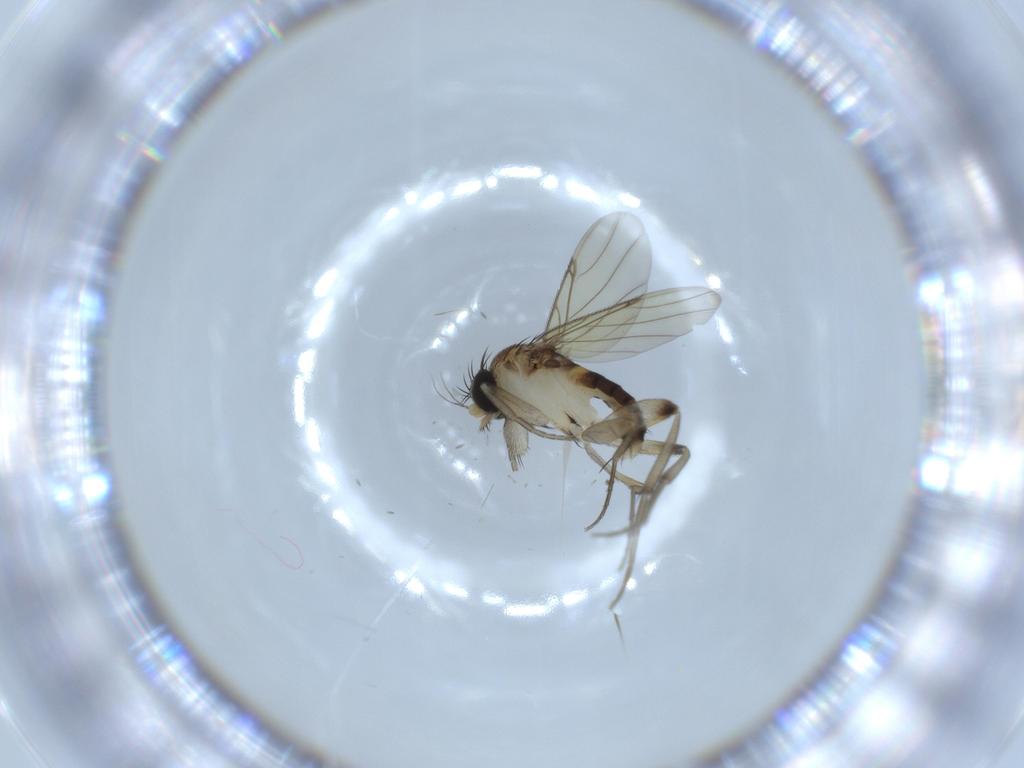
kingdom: Animalia
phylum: Arthropoda
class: Insecta
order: Diptera
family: Phoridae
